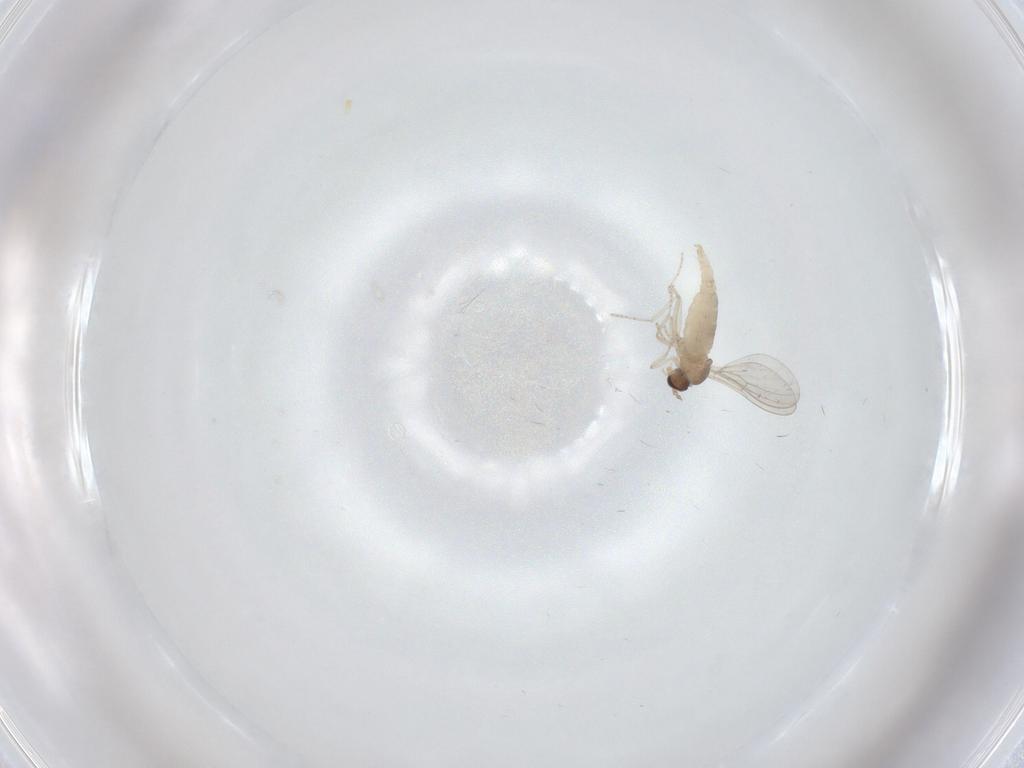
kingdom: Animalia
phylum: Arthropoda
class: Insecta
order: Diptera
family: Cecidomyiidae
